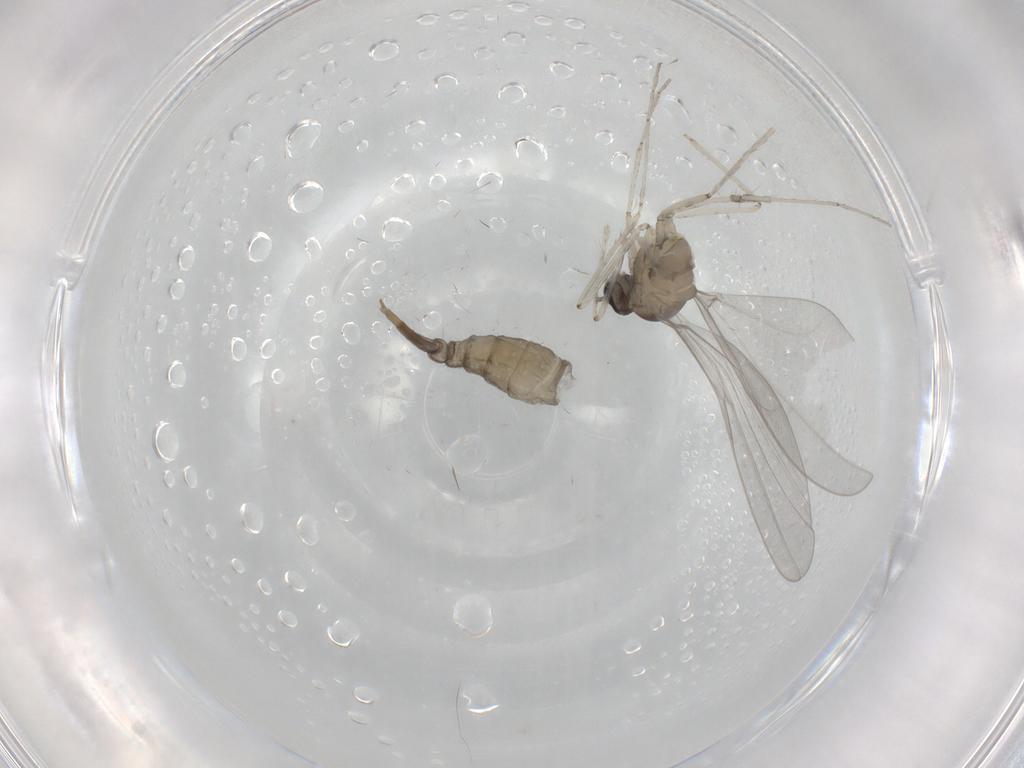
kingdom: Animalia
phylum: Arthropoda
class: Insecta
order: Diptera
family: Cecidomyiidae
